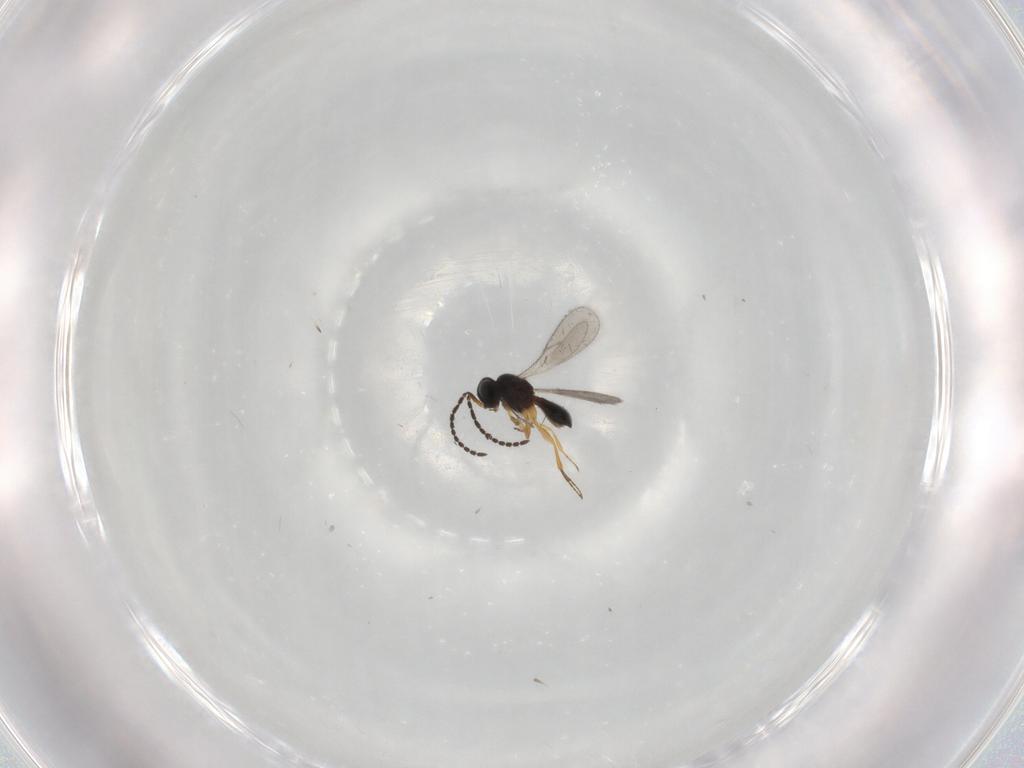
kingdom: Animalia
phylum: Arthropoda
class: Insecta
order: Hymenoptera
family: Scelionidae
